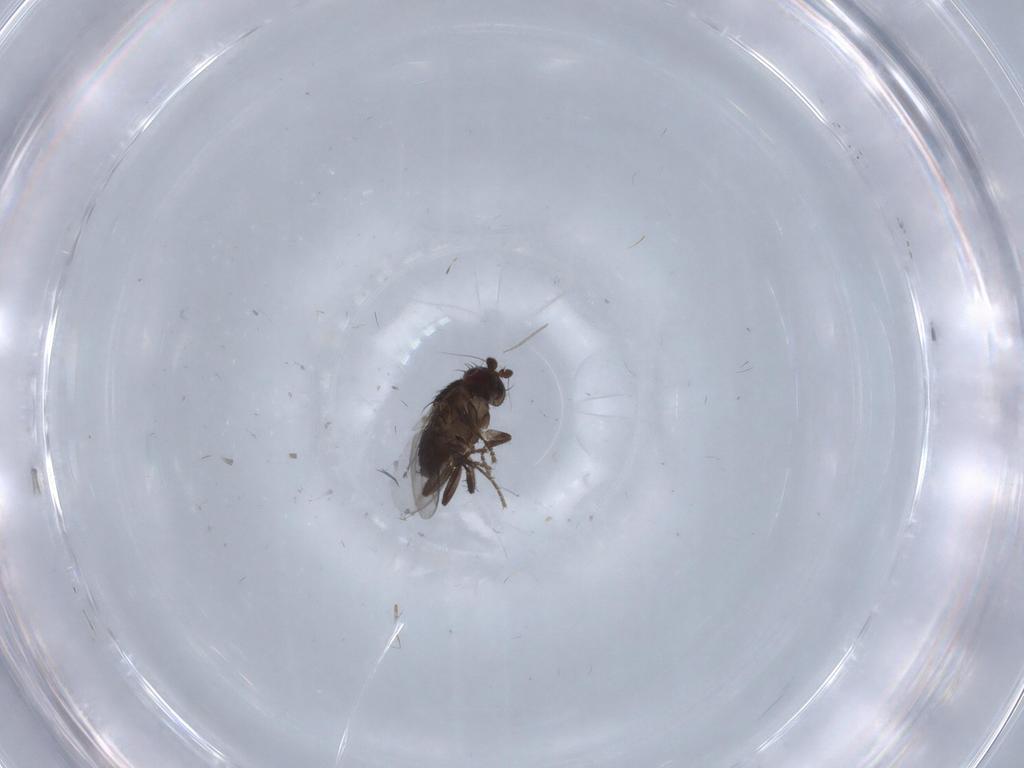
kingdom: Animalia
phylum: Arthropoda
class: Insecta
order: Diptera
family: Sphaeroceridae
